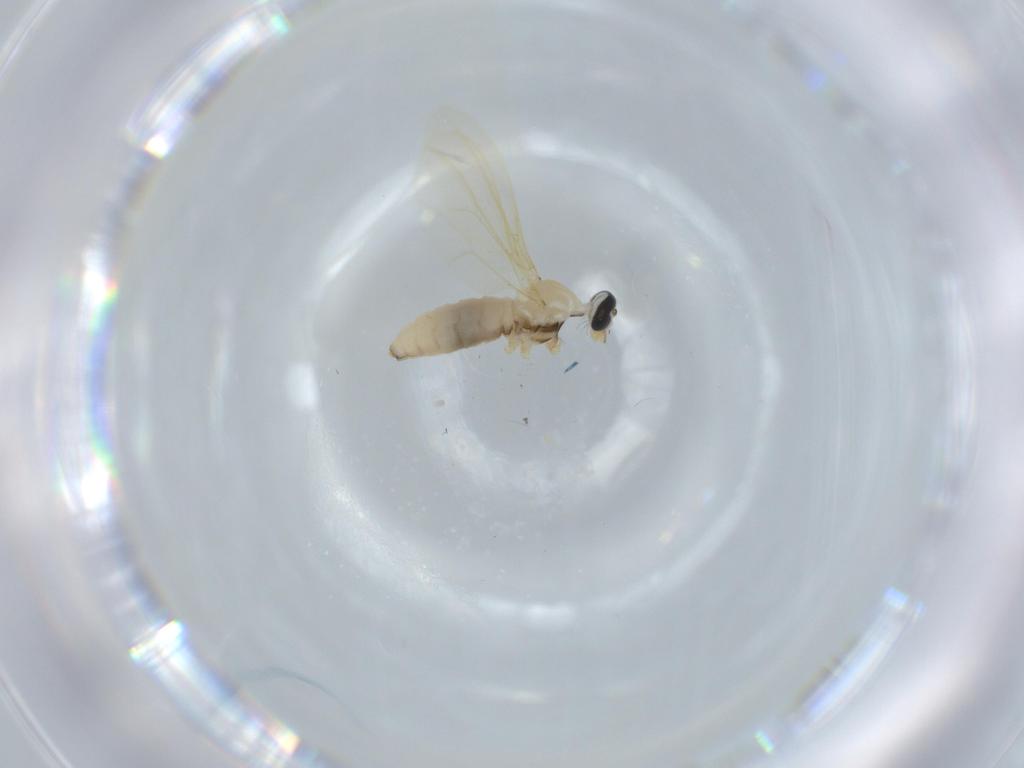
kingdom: Animalia
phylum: Arthropoda
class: Insecta
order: Diptera
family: Cecidomyiidae
